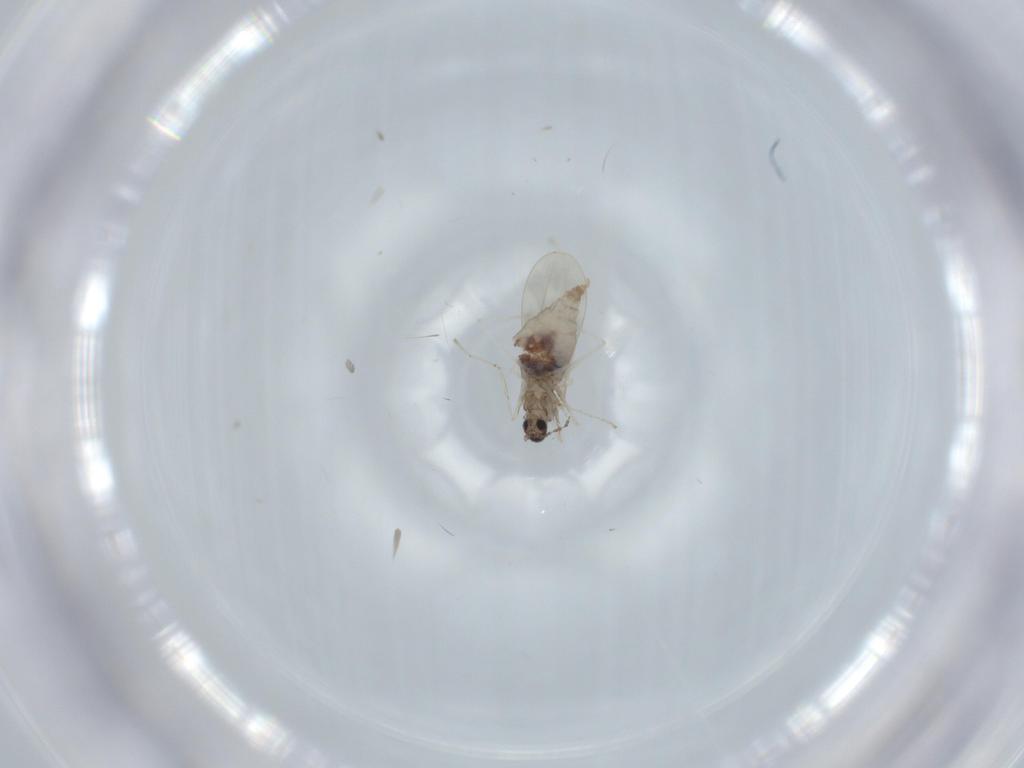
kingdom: Animalia
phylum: Arthropoda
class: Insecta
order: Diptera
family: Cecidomyiidae
